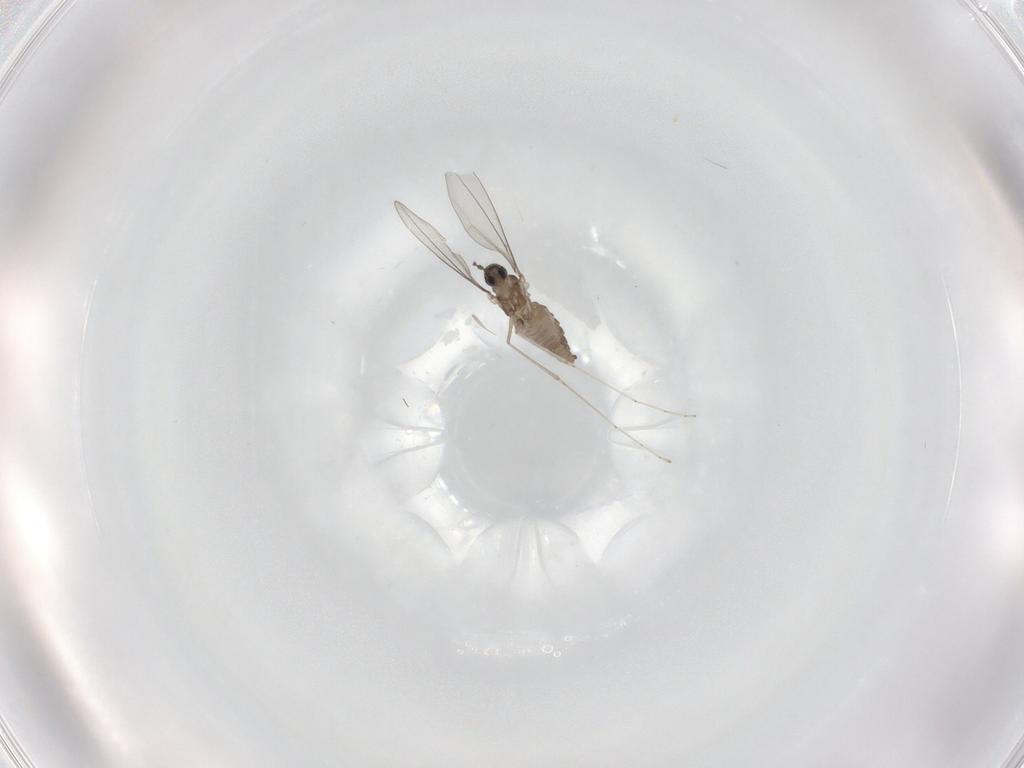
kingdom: Animalia
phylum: Arthropoda
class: Insecta
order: Diptera
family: Cecidomyiidae
